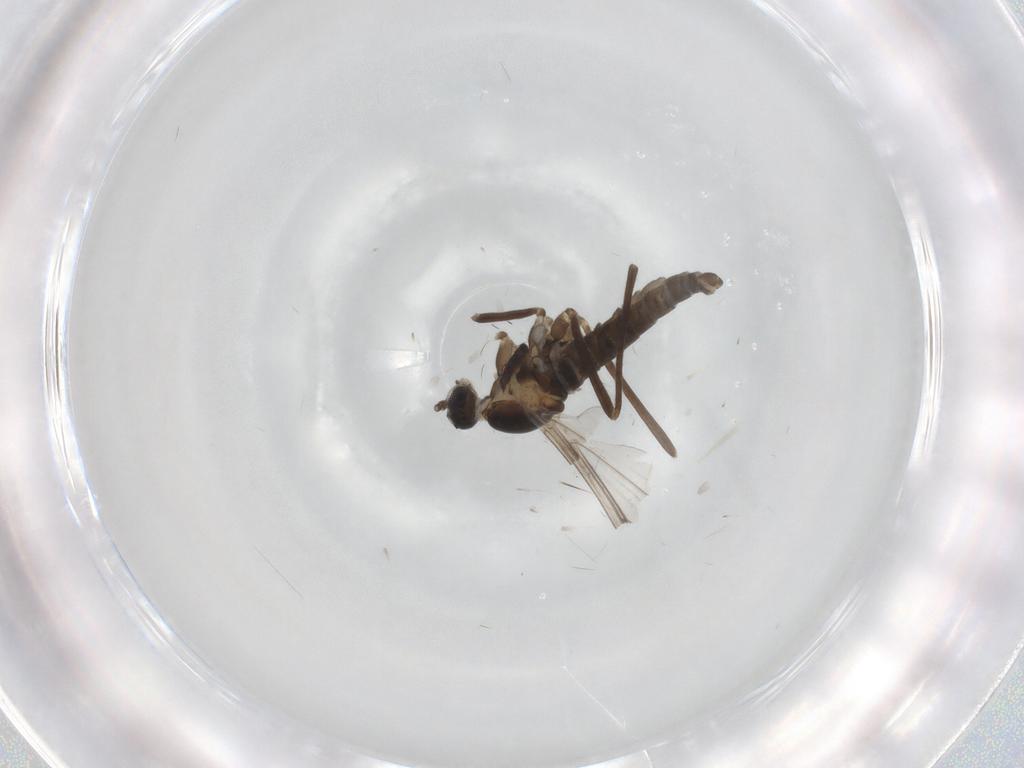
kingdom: Animalia
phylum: Arthropoda
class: Insecta
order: Diptera
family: Cecidomyiidae
